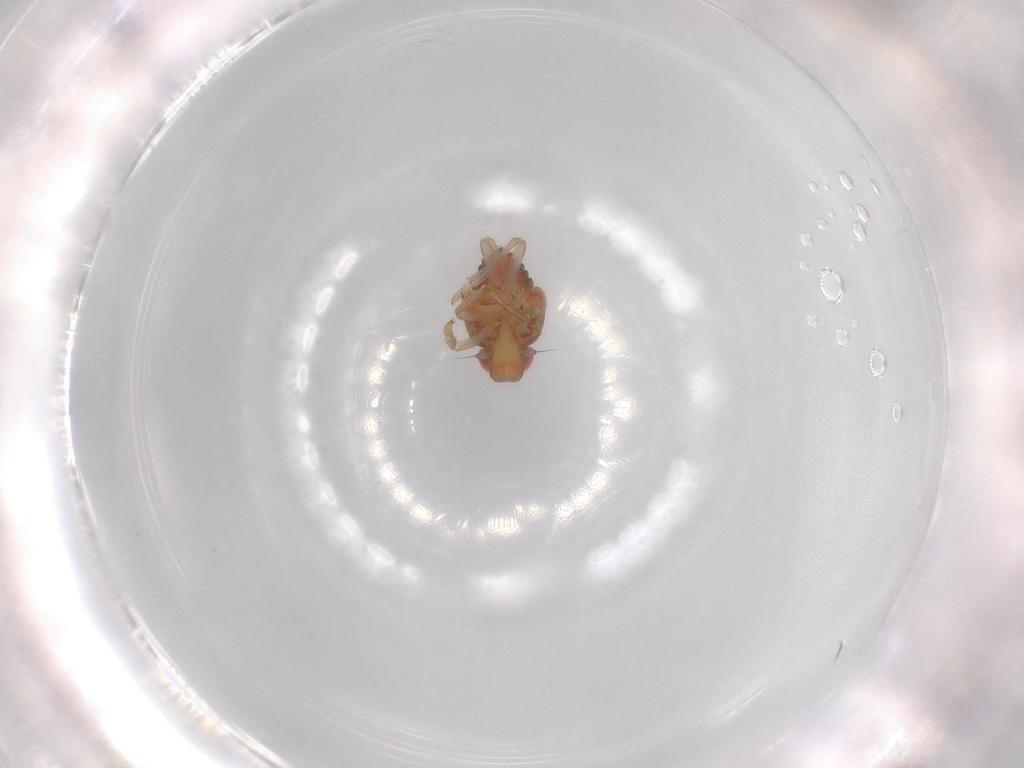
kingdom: Animalia
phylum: Arthropoda
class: Insecta
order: Hemiptera
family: Issidae
